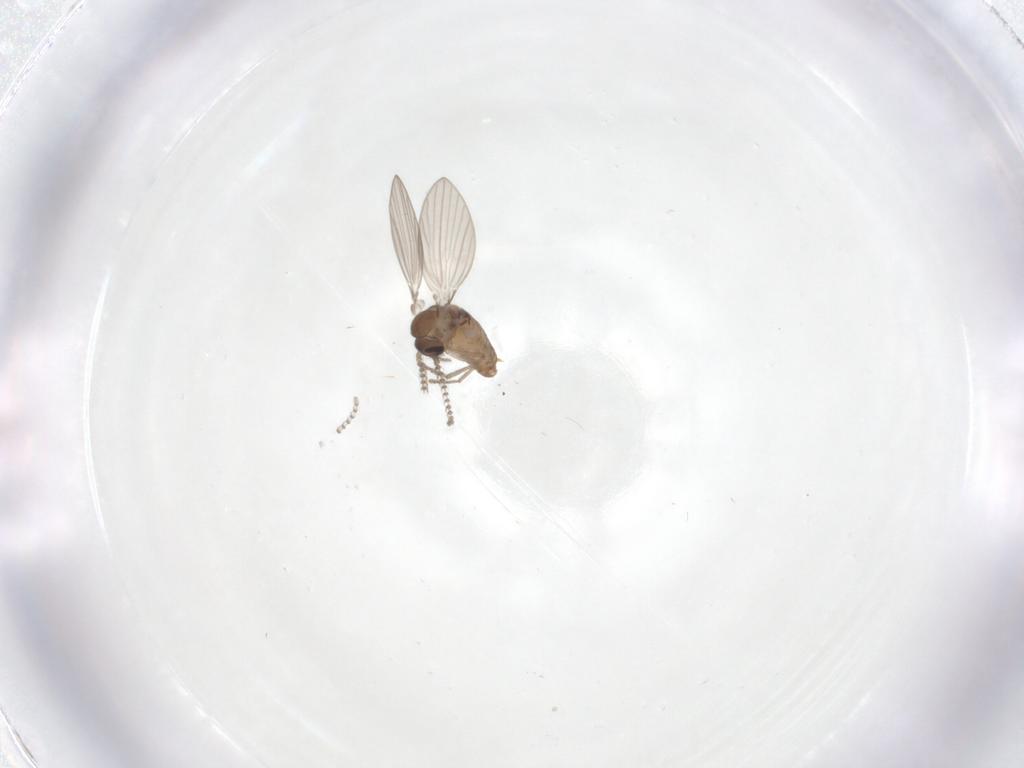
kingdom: Animalia
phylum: Arthropoda
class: Insecta
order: Diptera
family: Psychodidae
